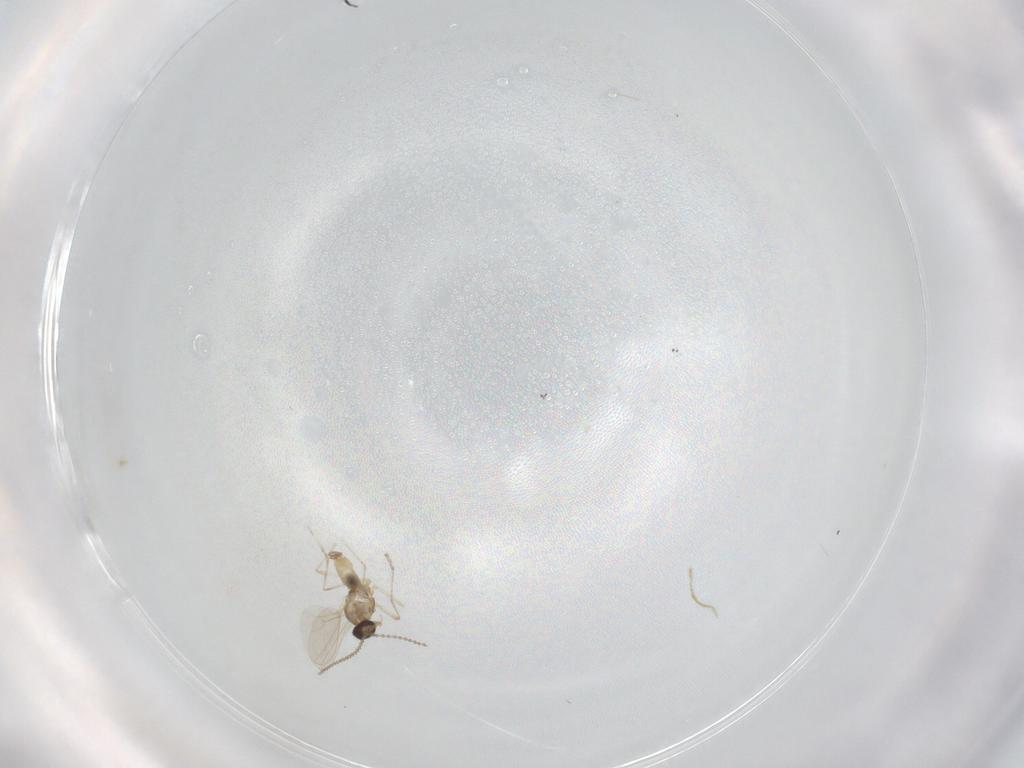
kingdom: Animalia
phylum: Arthropoda
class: Insecta
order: Diptera
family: Cecidomyiidae
